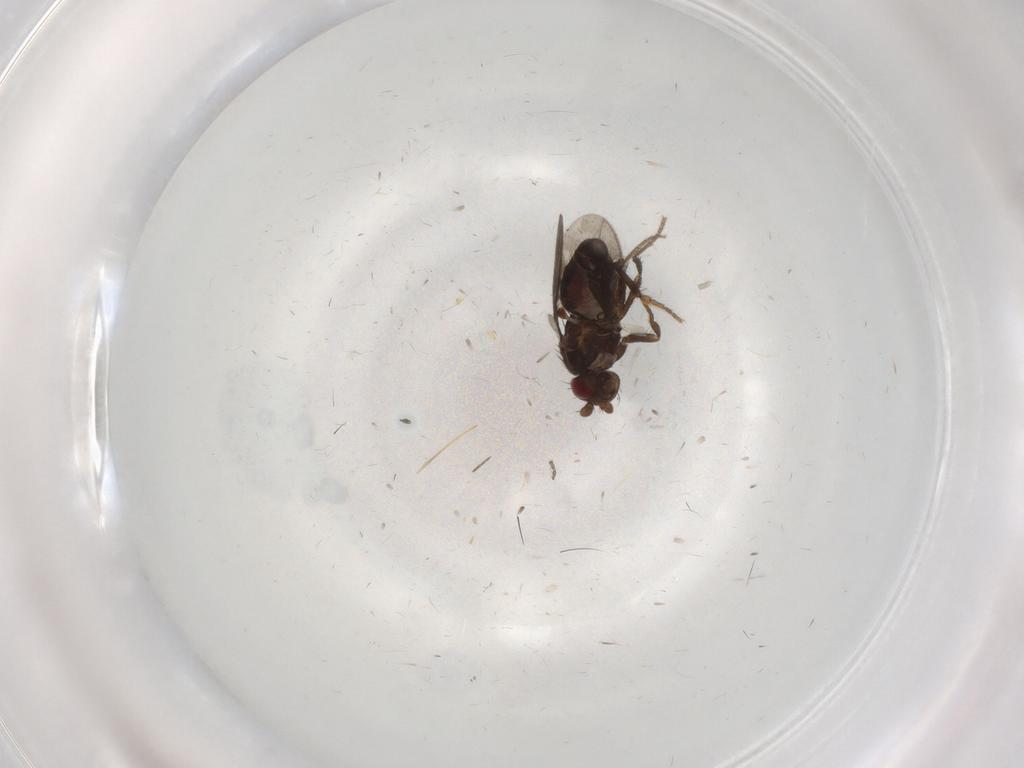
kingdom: Animalia
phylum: Arthropoda
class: Insecta
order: Diptera
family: Sphaeroceridae
